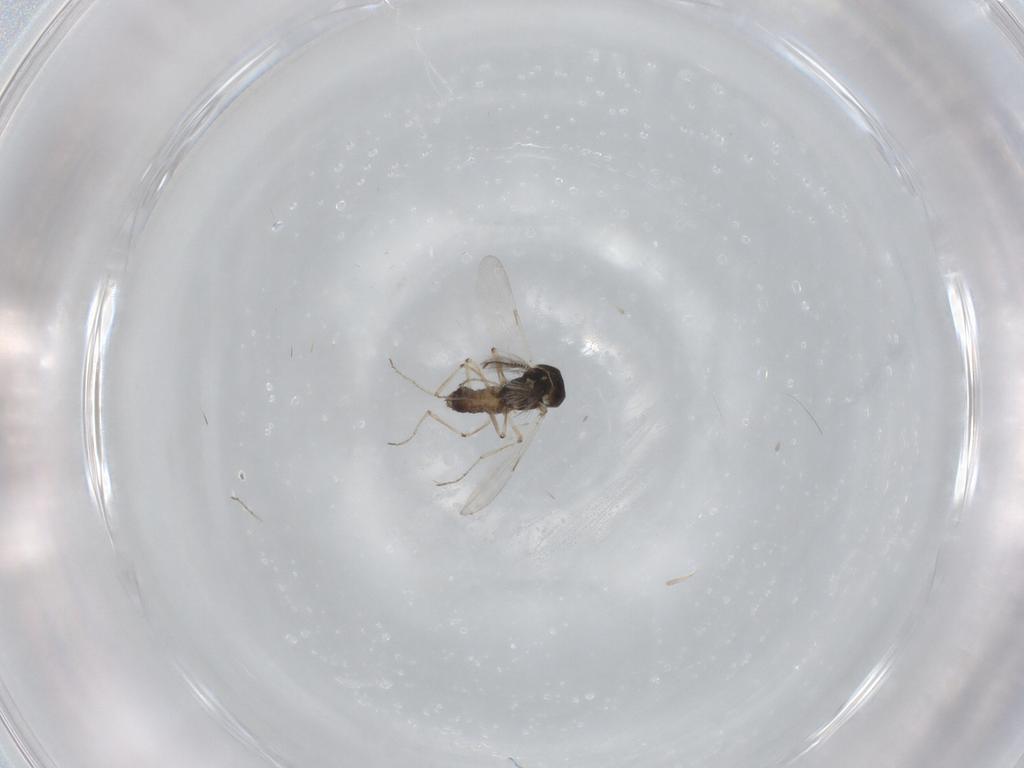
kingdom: Animalia
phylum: Arthropoda
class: Insecta
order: Diptera
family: Ceratopogonidae
